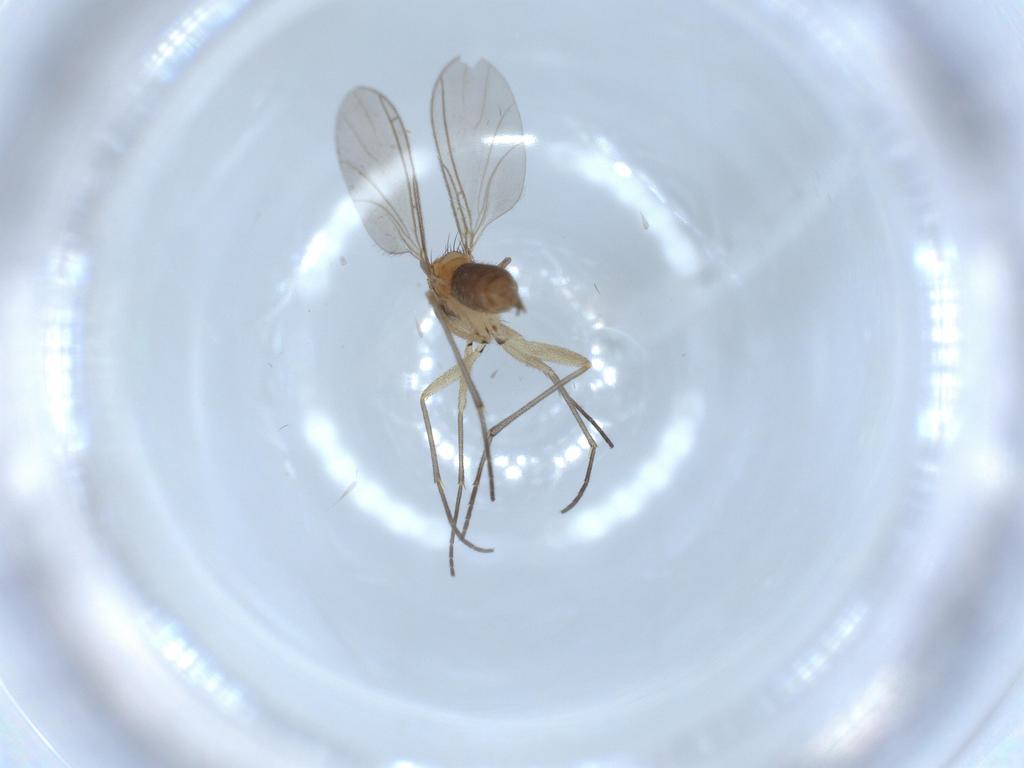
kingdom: Animalia
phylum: Arthropoda
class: Insecta
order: Diptera
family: Sciaridae
